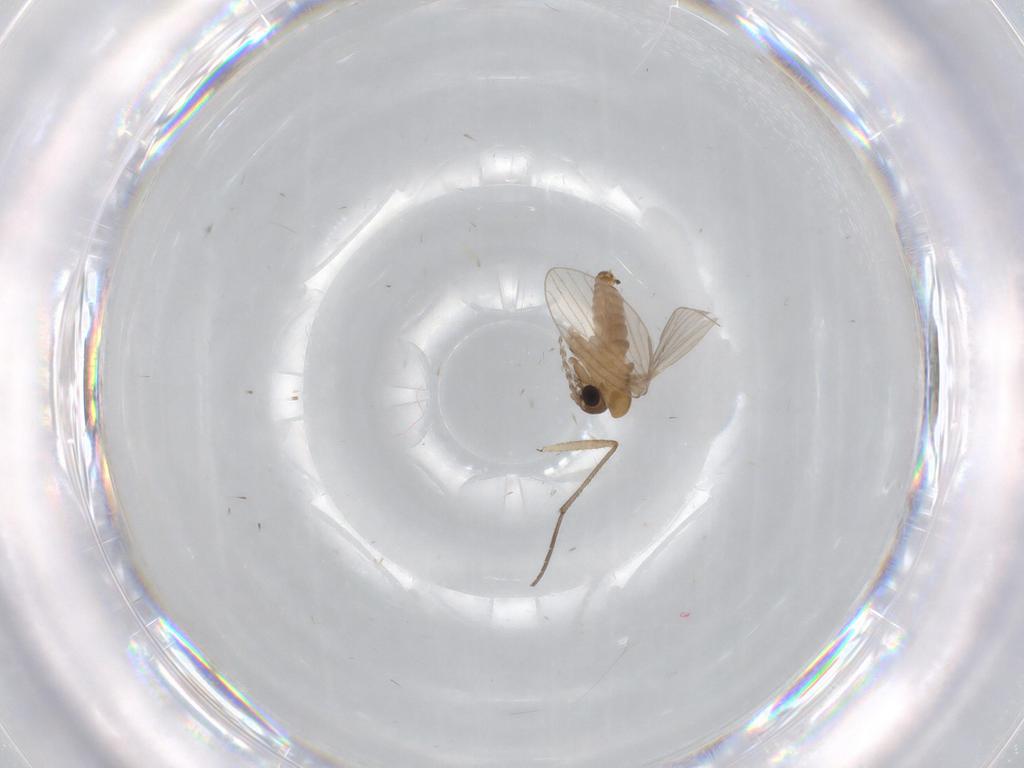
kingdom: Animalia
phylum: Arthropoda
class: Insecta
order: Diptera
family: Sciaridae
